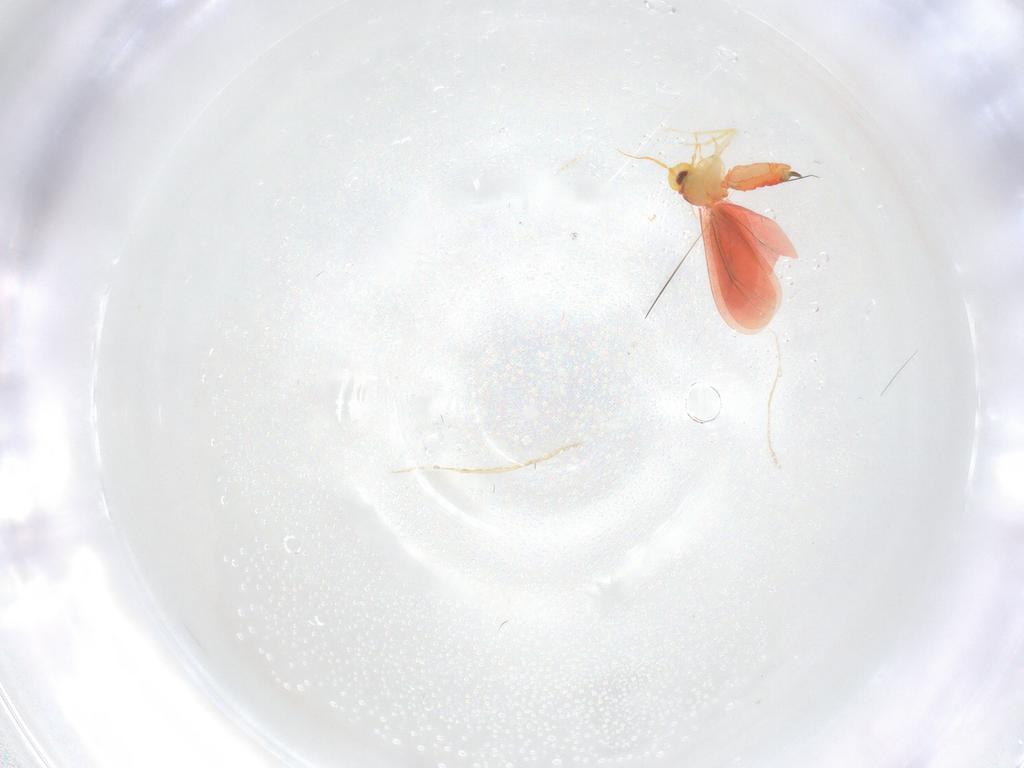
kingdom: Animalia
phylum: Arthropoda
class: Insecta
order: Hemiptera
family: Aleyrodidae
